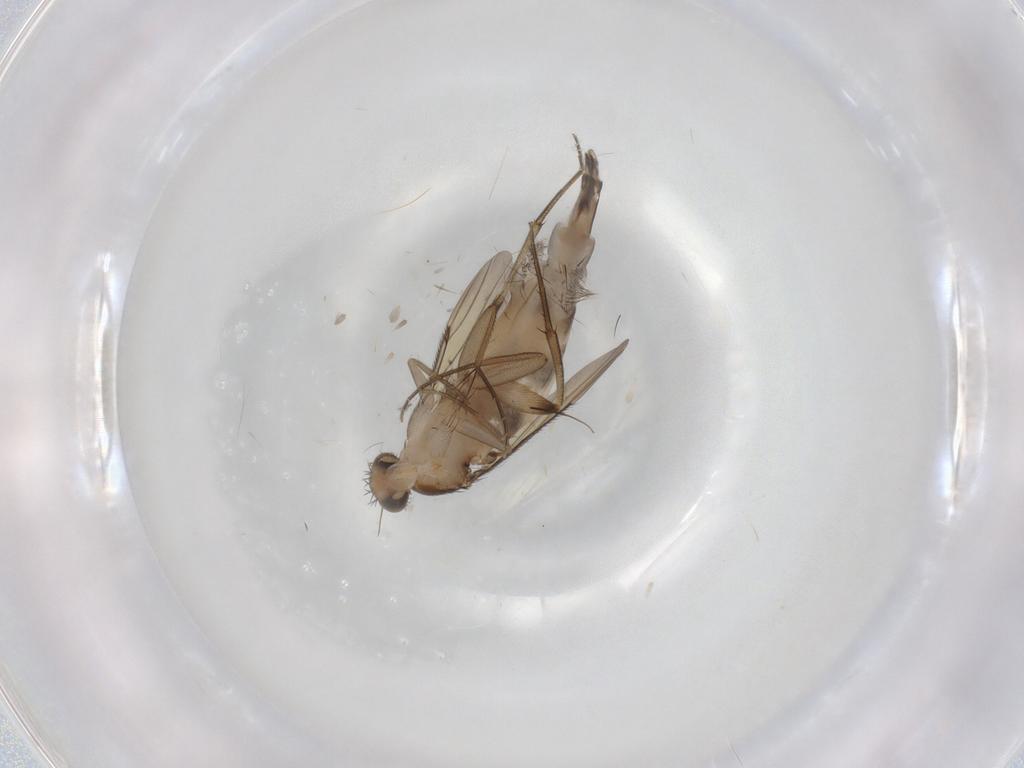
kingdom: Animalia
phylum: Arthropoda
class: Insecta
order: Diptera
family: Phoridae
